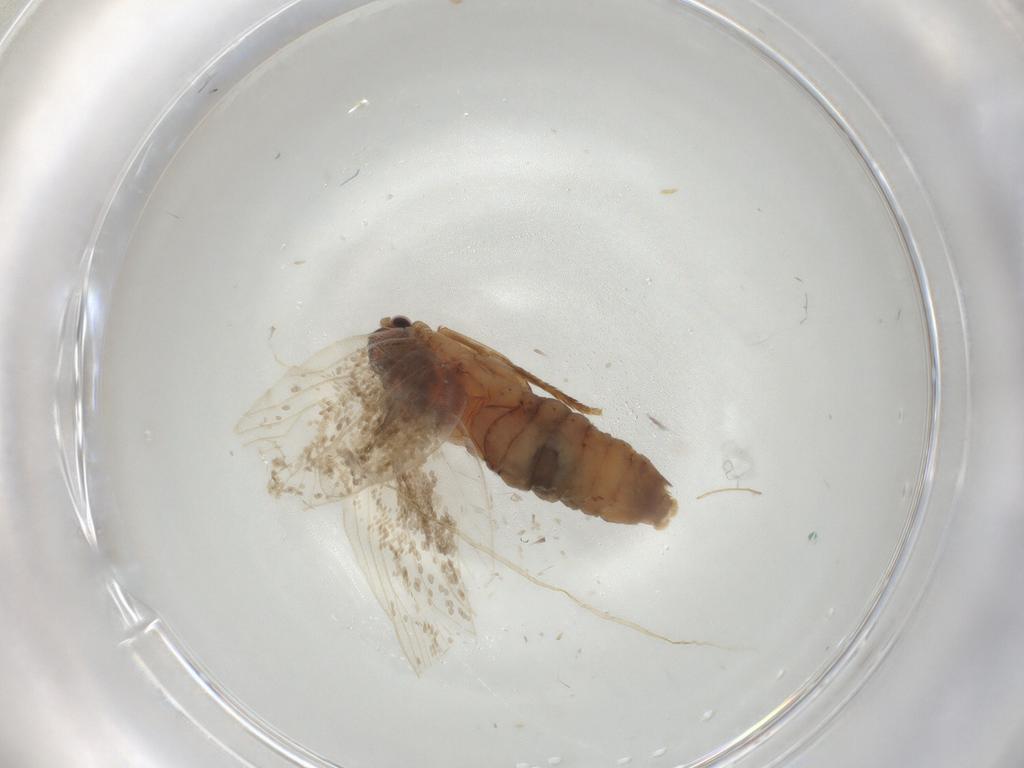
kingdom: Animalia
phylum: Arthropoda
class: Insecta
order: Lepidoptera
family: Eriocottidae
